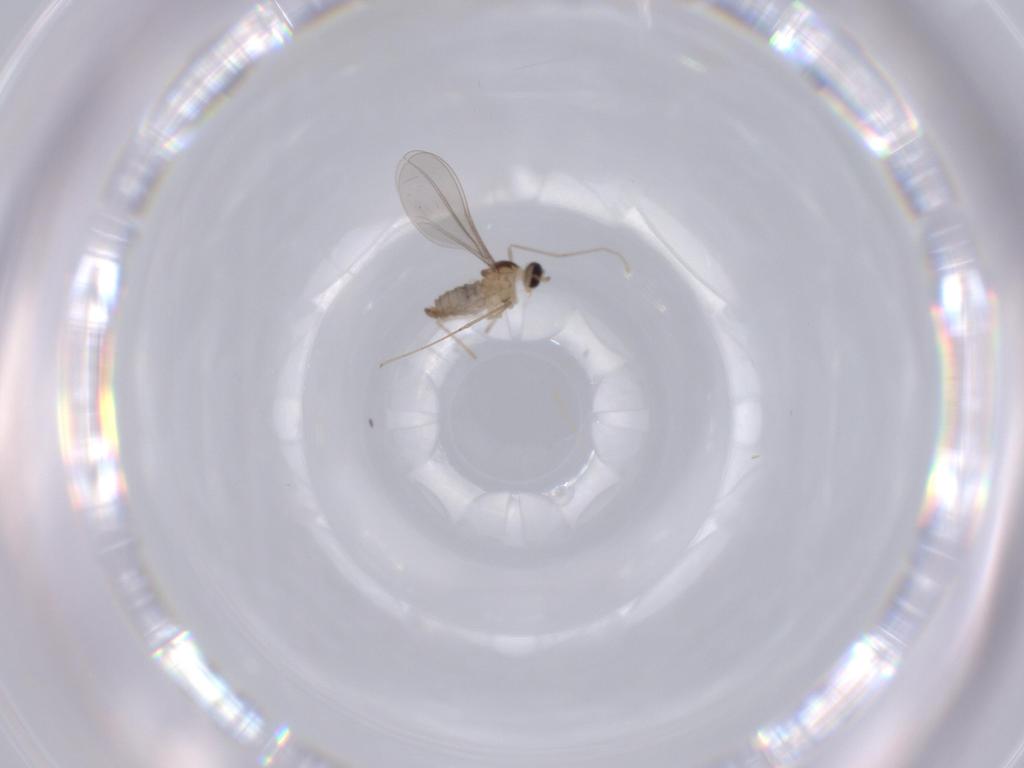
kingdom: Animalia
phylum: Arthropoda
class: Insecta
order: Diptera
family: Cecidomyiidae
